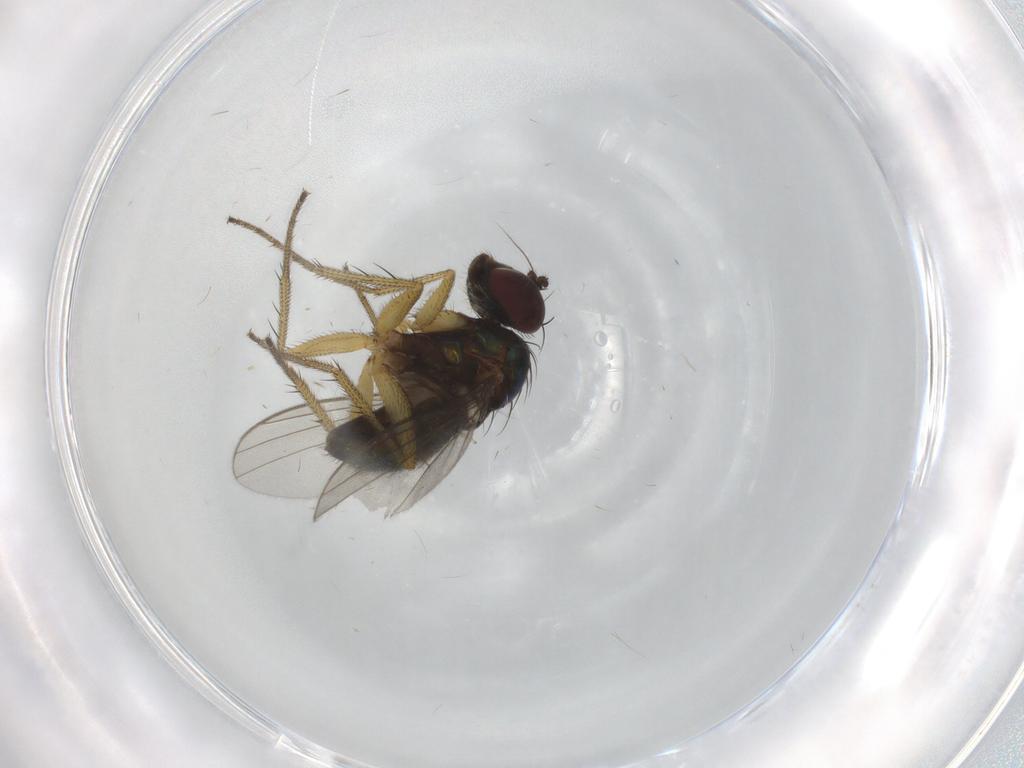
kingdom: Animalia
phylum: Arthropoda
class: Insecta
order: Diptera
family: Chironomidae
